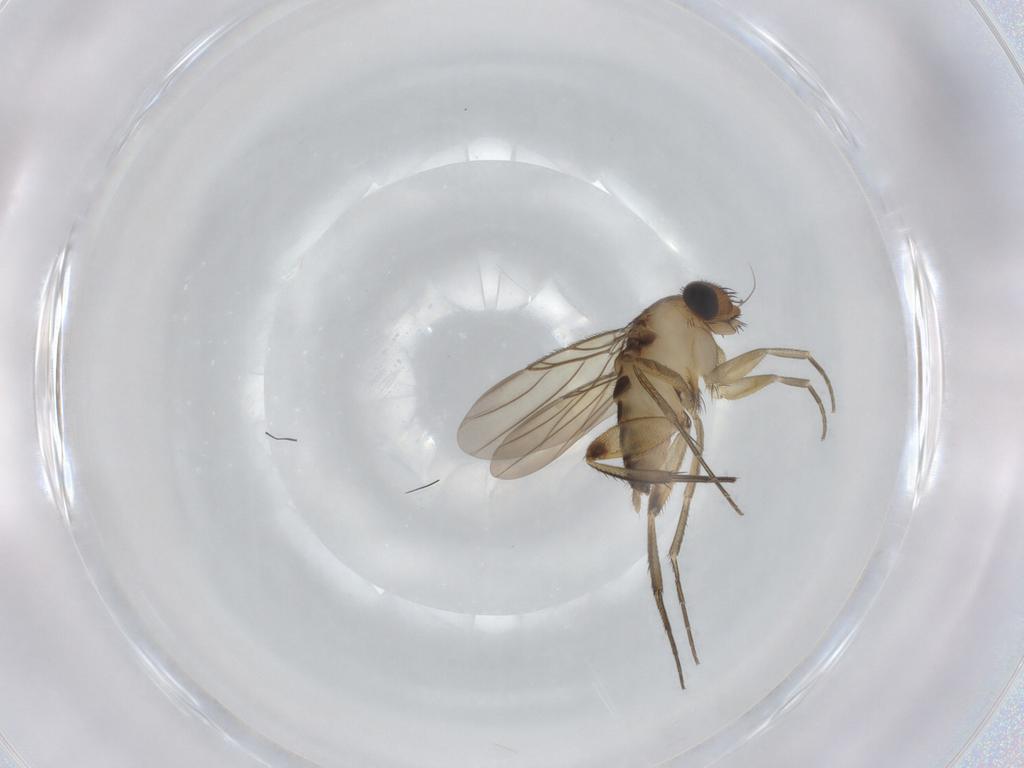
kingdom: Animalia
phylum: Arthropoda
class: Insecta
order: Diptera
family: Phoridae
